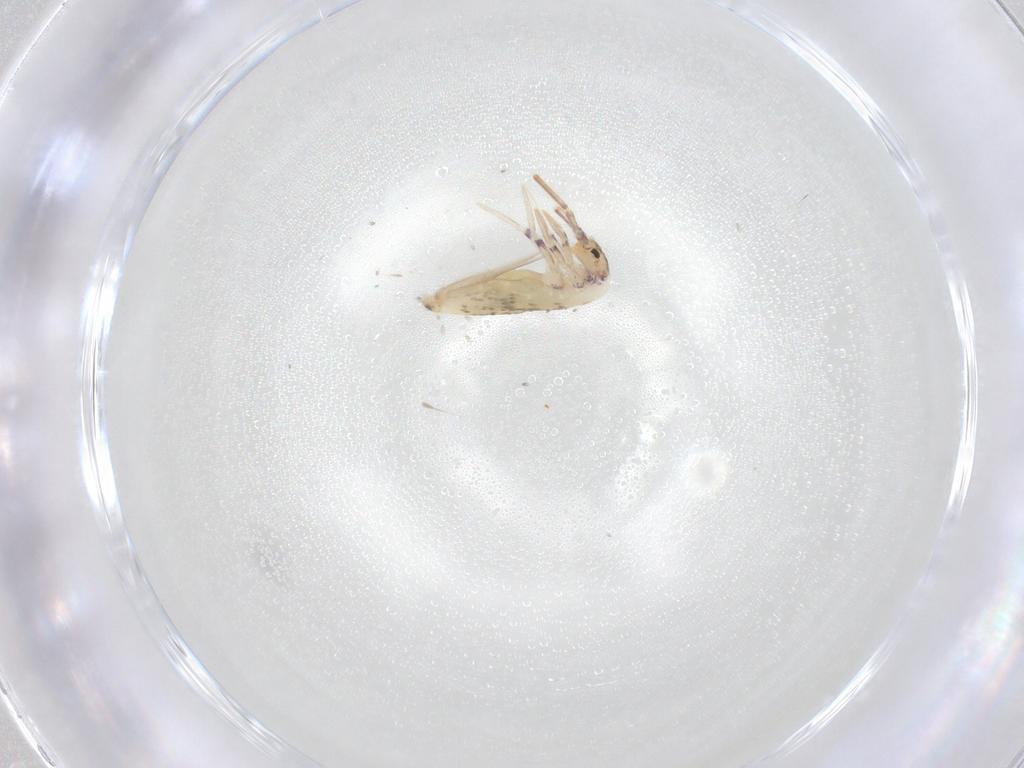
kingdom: Animalia
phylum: Arthropoda
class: Collembola
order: Entomobryomorpha
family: Entomobryidae
